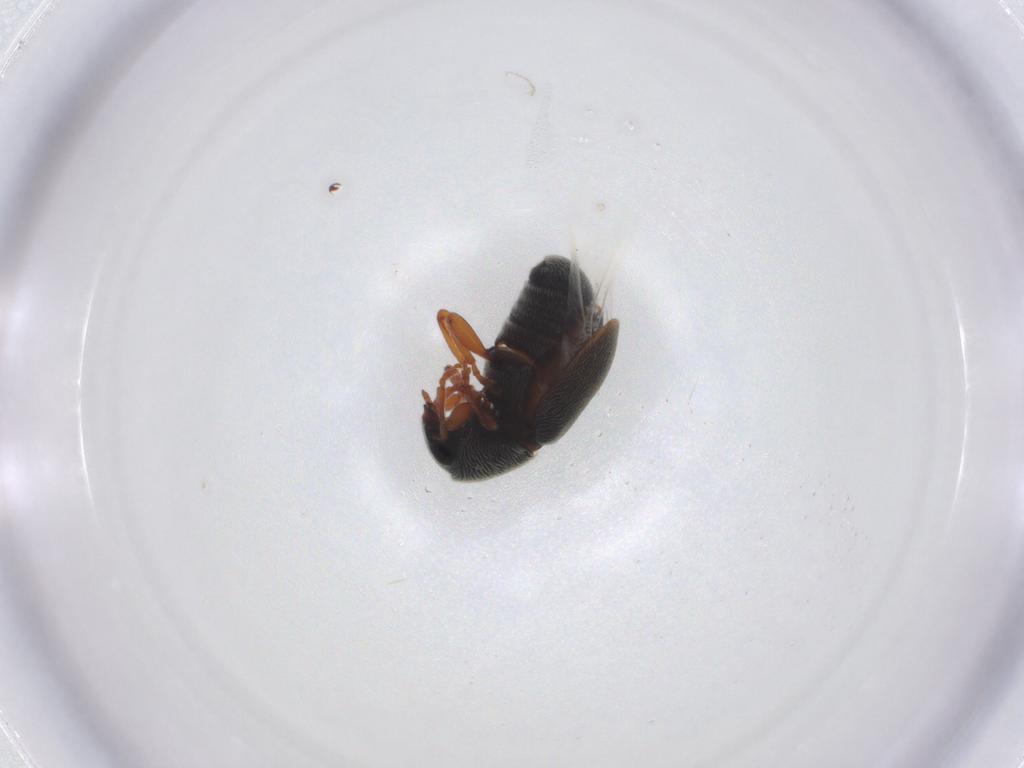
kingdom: Animalia
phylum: Arthropoda
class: Insecta
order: Coleoptera
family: Anthribidae
